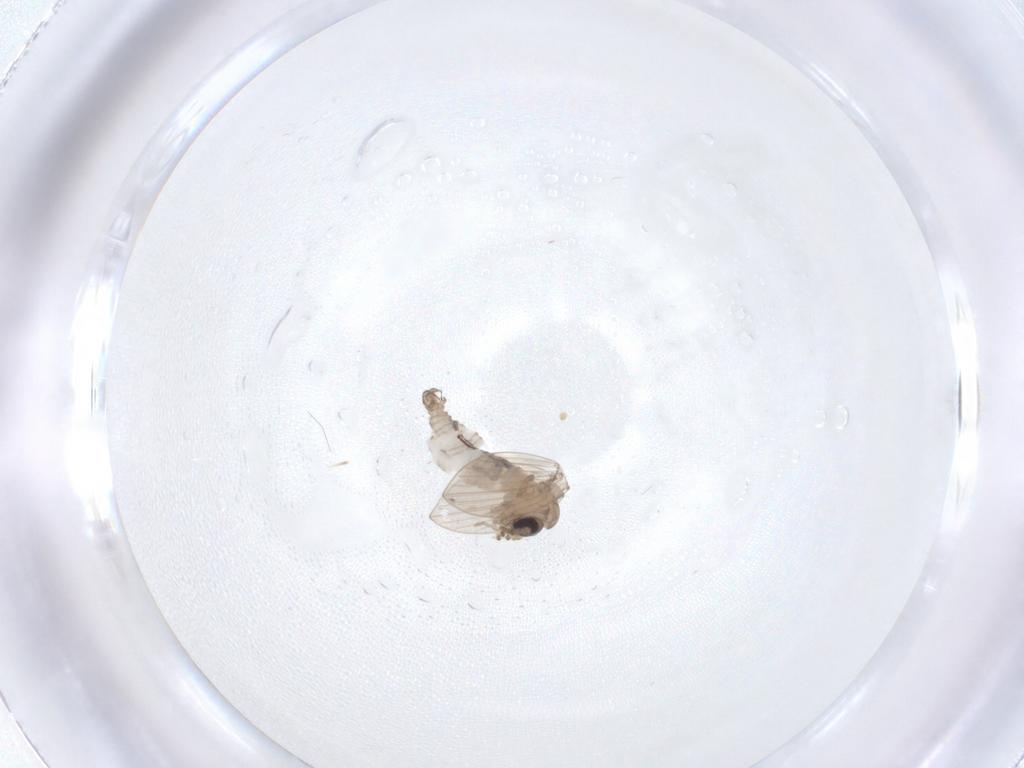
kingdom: Animalia
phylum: Arthropoda
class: Insecta
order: Diptera
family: Psychodidae
